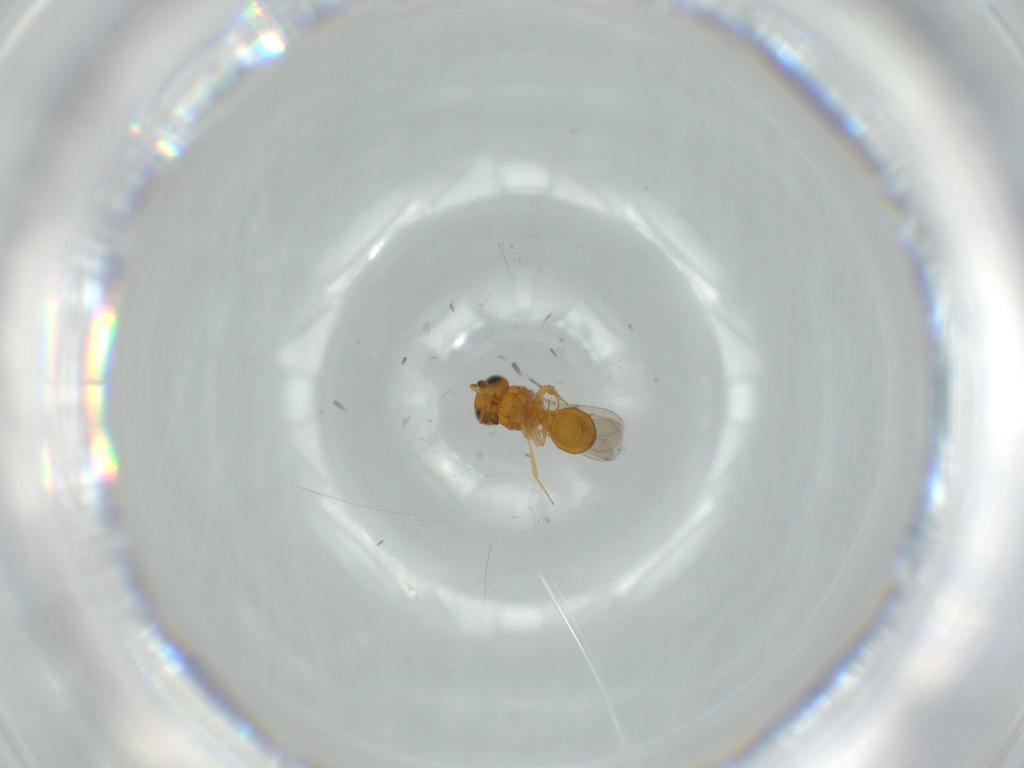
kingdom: Animalia
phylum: Arthropoda
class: Insecta
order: Hymenoptera
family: Scelionidae
